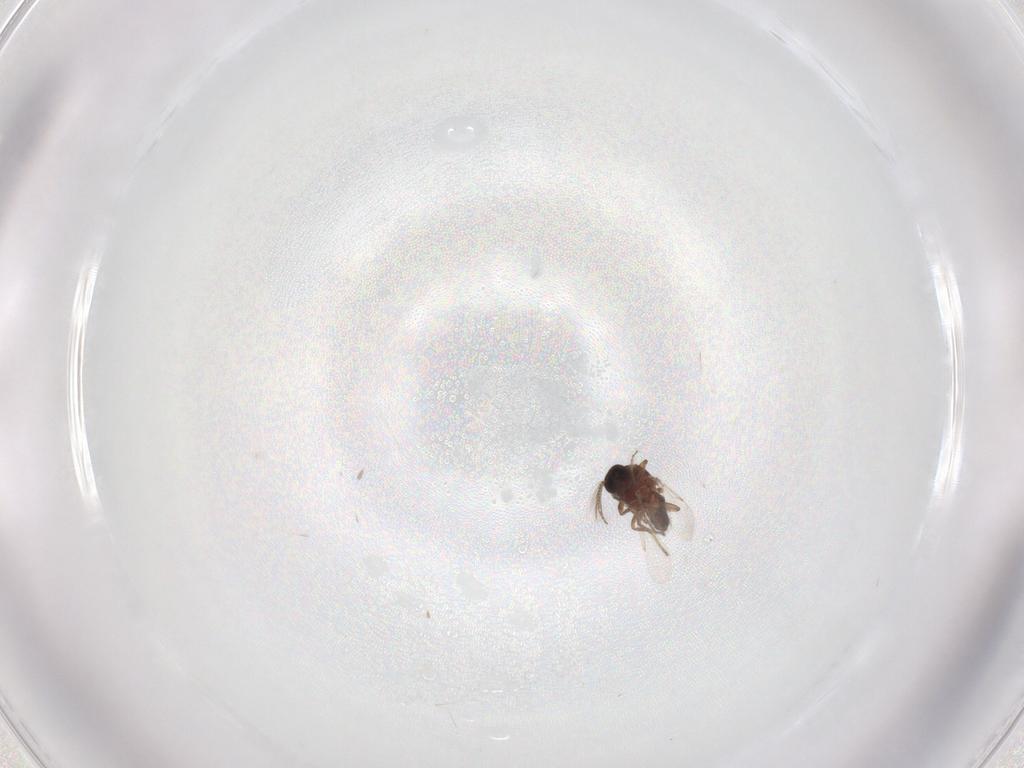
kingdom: Animalia
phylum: Arthropoda
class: Insecta
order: Diptera
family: Ceratopogonidae
